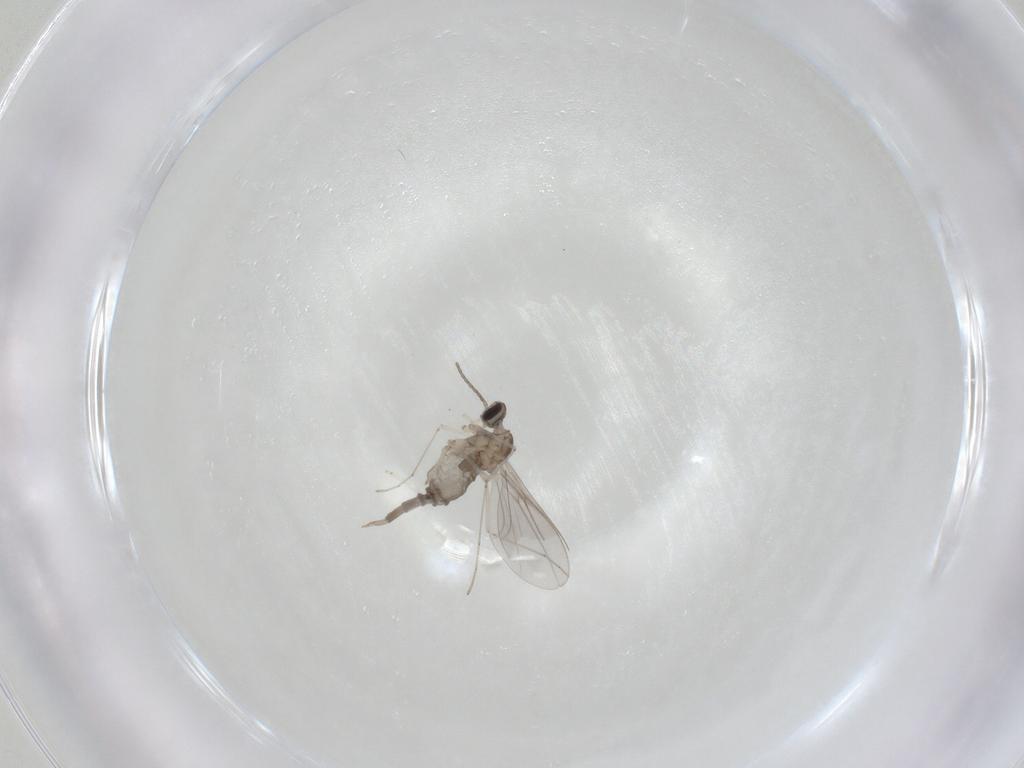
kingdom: Animalia
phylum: Arthropoda
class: Insecta
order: Diptera
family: Cecidomyiidae
